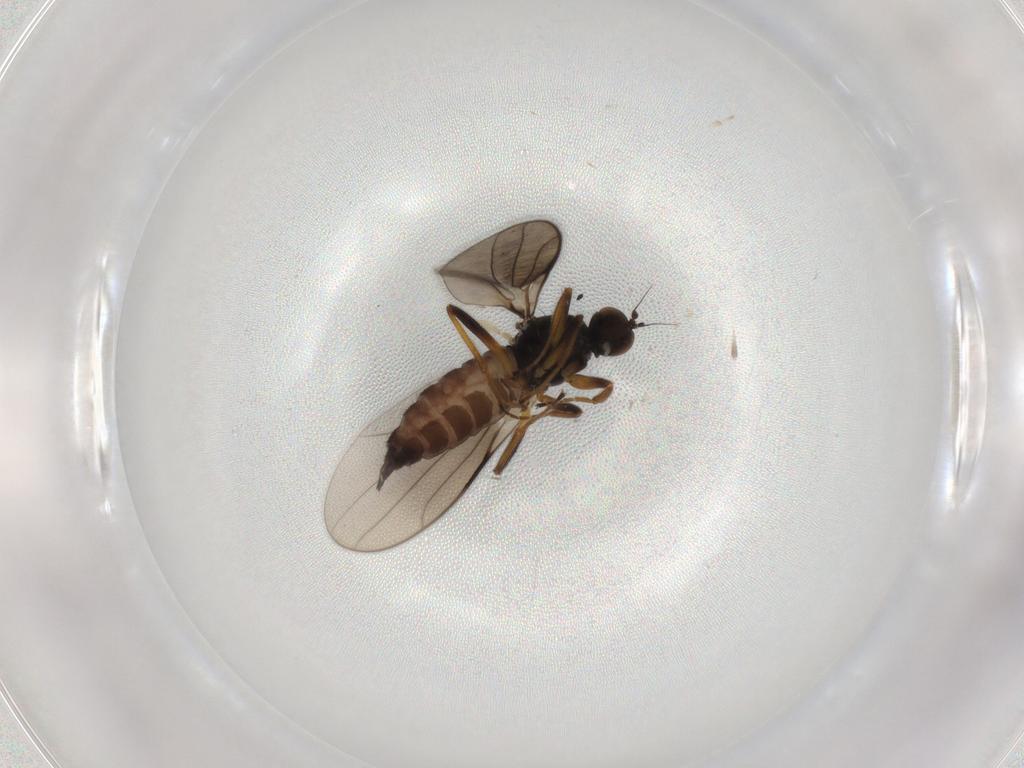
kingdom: Animalia
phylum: Arthropoda
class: Insecta
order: Diptera
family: Hybotidae
